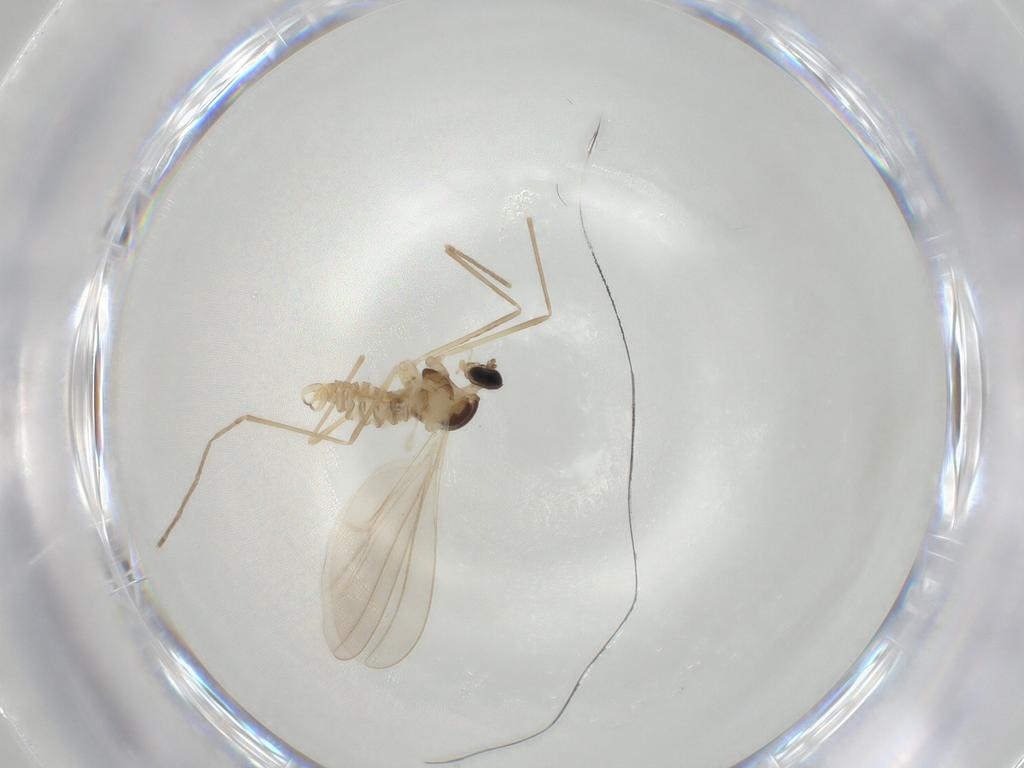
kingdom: Animalia
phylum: Arthropoda
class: Insecta
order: Diptera
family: Cecidomyiidae
